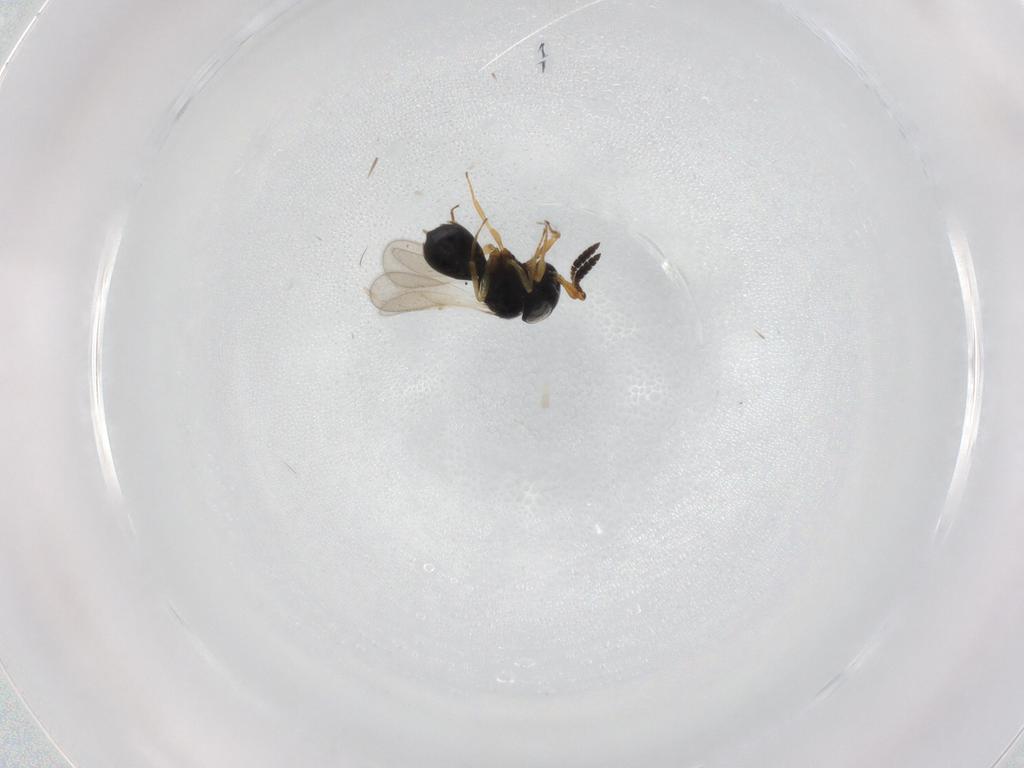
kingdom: Animalia
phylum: Arthropoda
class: Insecta
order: Hymenoptera
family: Scelionidae
